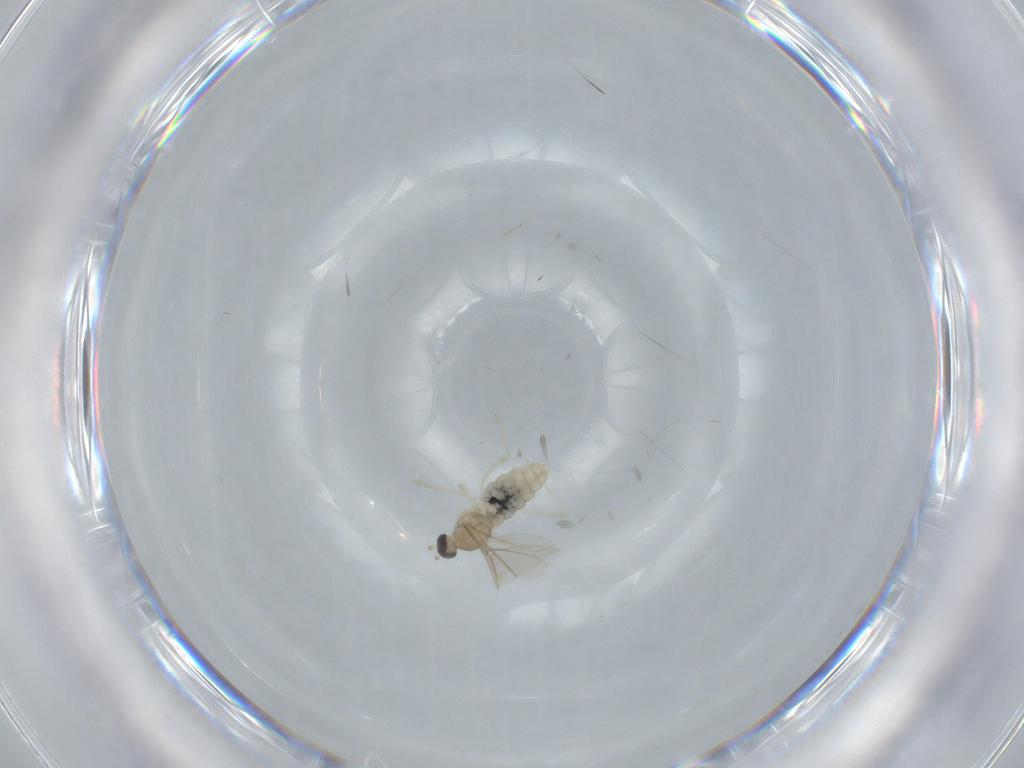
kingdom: Animalia
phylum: Arthropoda
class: Insecta
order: Diptera
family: Cecidomyiidae
